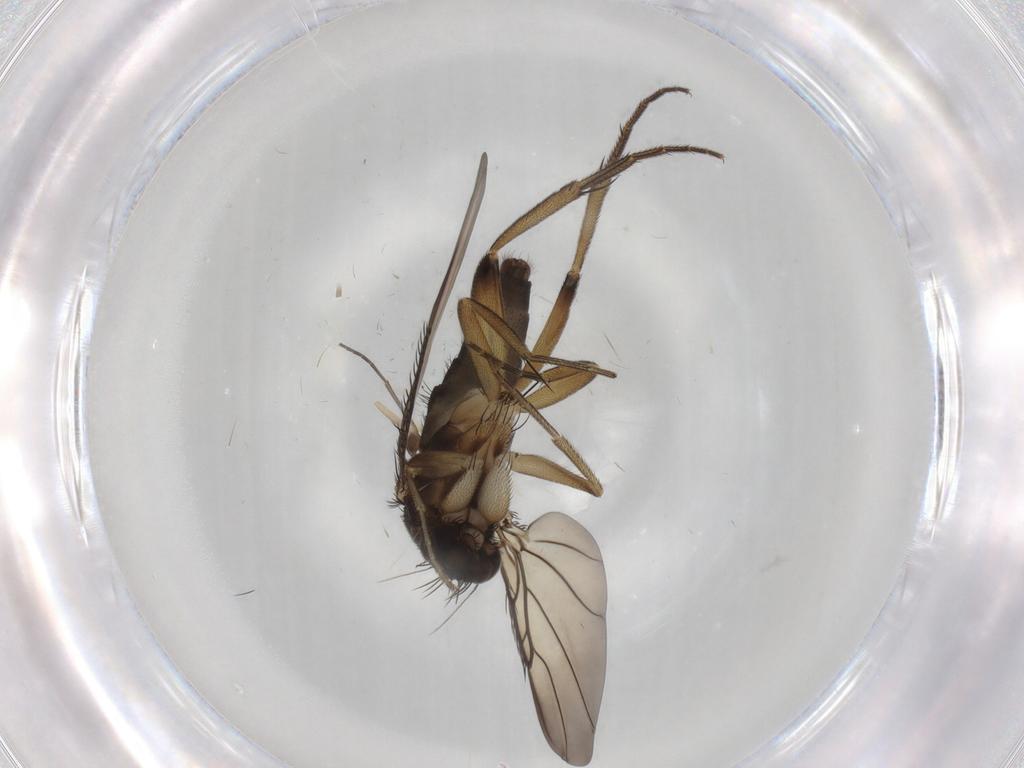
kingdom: Animalia
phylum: Arthropoda
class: Insecta
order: Diptera
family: Phoridae
